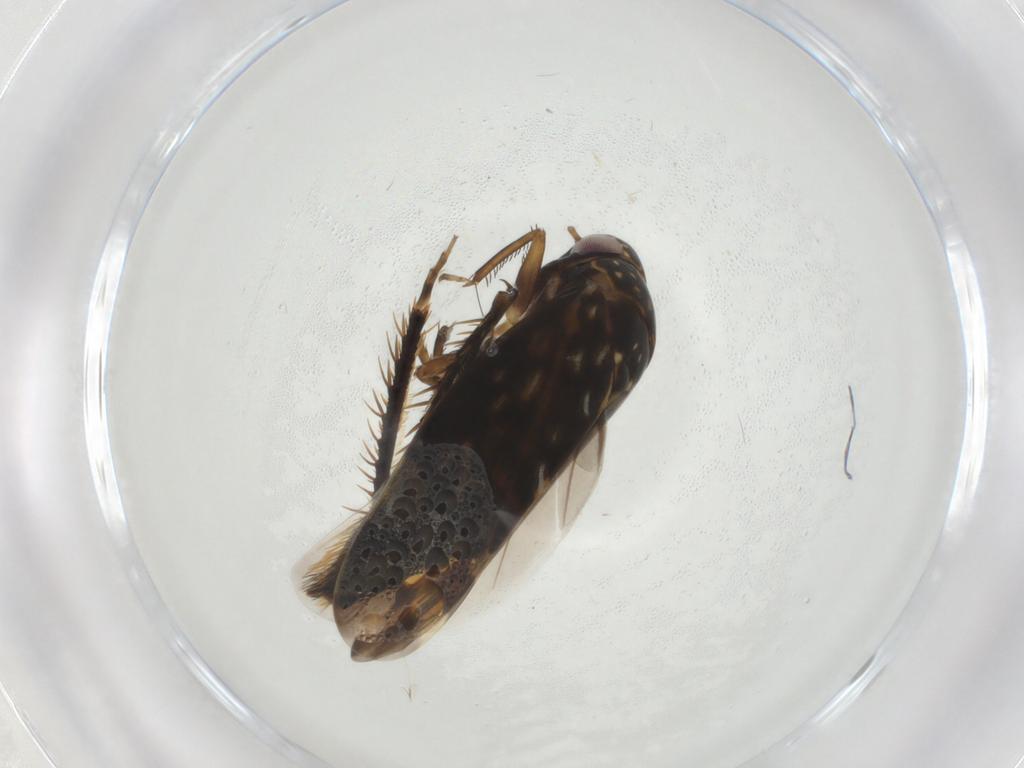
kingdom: Animalia
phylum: Arthropoda
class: Insecta
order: Hemiptera
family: Cicadellidae
